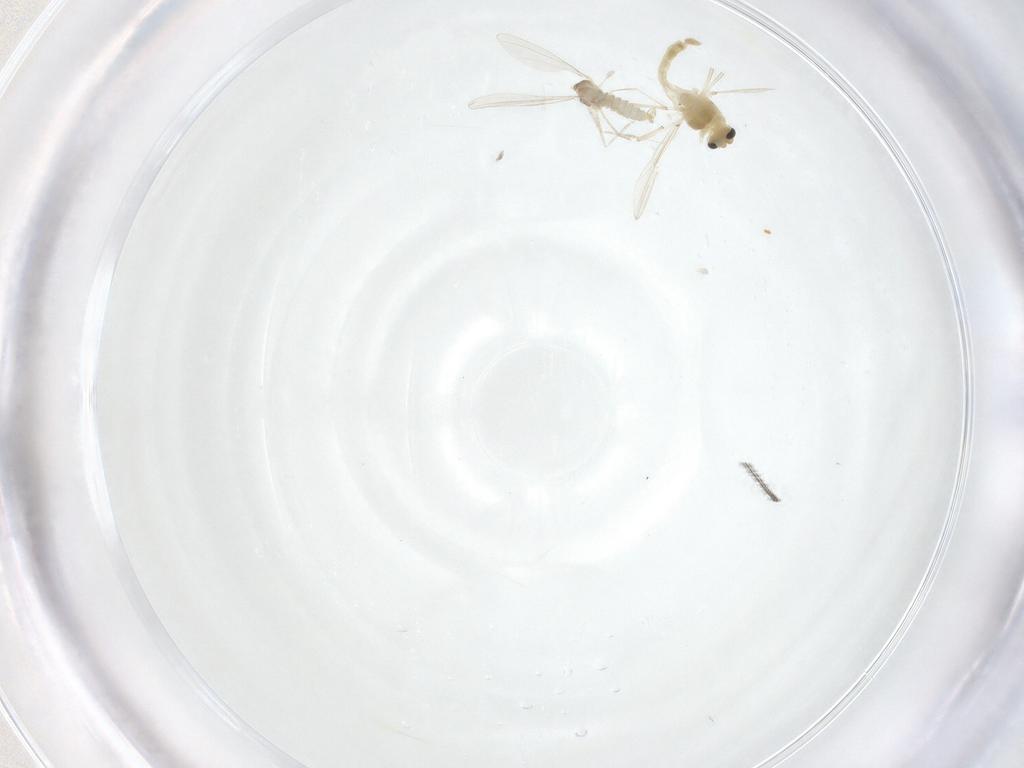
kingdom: Animalia
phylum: Arthropoda
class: Insecta
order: Diptera
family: Chironomidae
